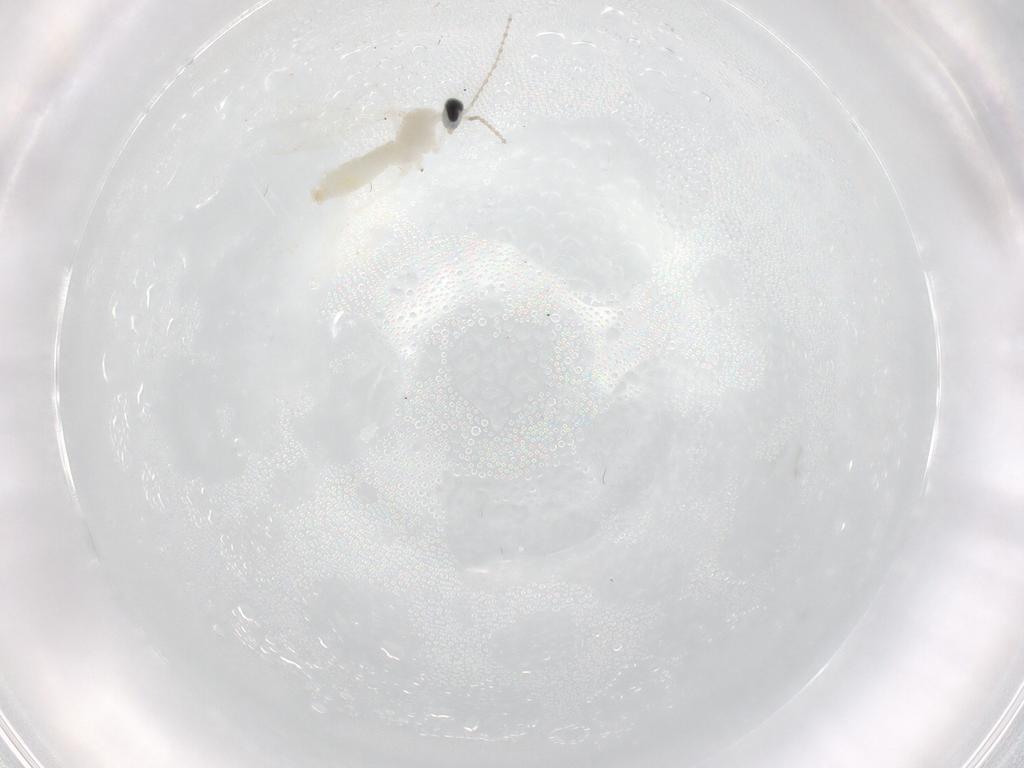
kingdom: Animalia
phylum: Arthropoda
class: Insecta
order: Diptera
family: Cecidomyiidae
